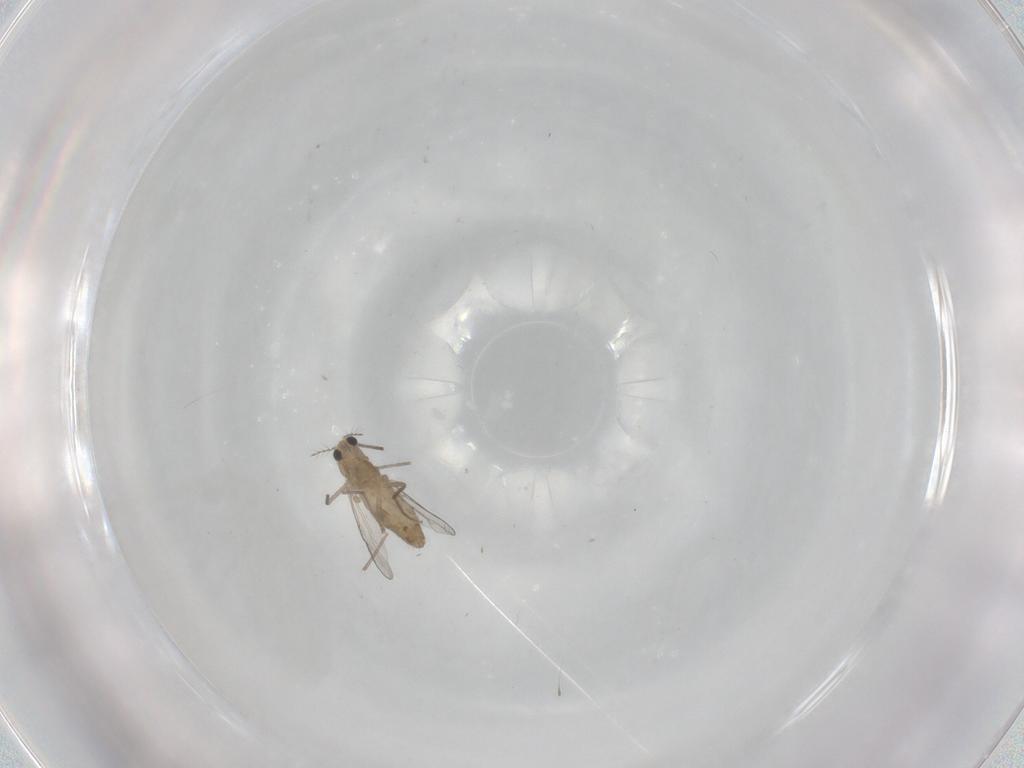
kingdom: Animalia
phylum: Arthropoda
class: Insecta
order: Diptera
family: Chironomidae
